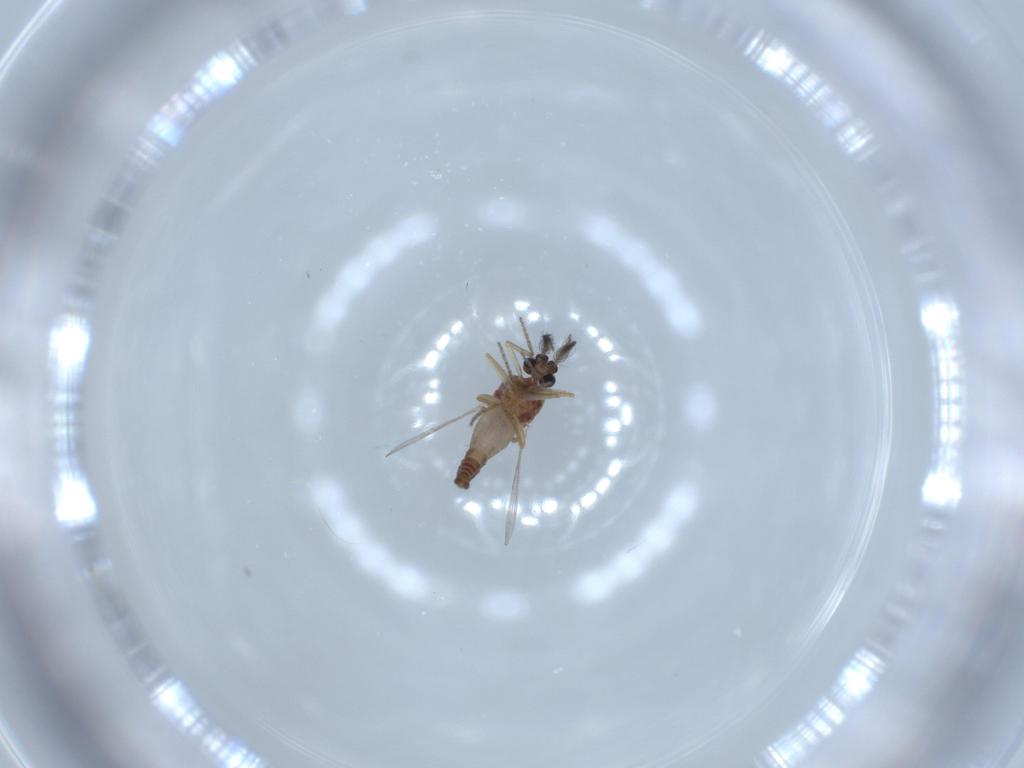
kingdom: Animalia
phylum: Arthropoda
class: Insecta
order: Diptera
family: Ceratopogonidae
